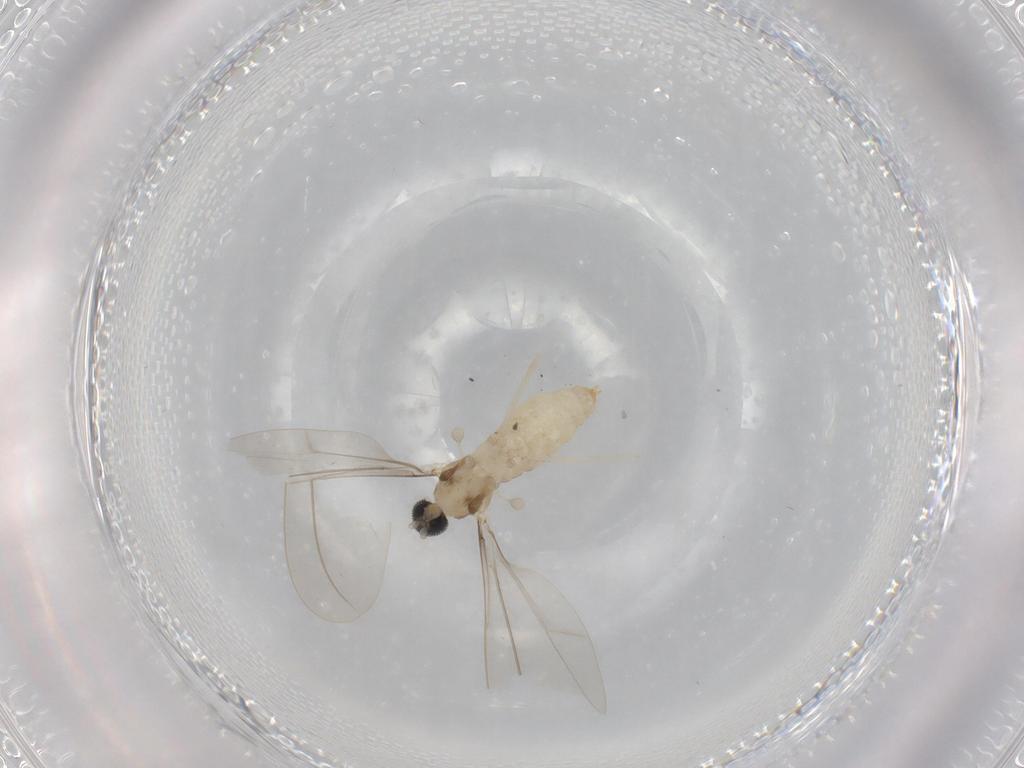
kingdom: Animalia
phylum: Arthropoda
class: Insecta
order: Diptera
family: Cecidomyiidae
